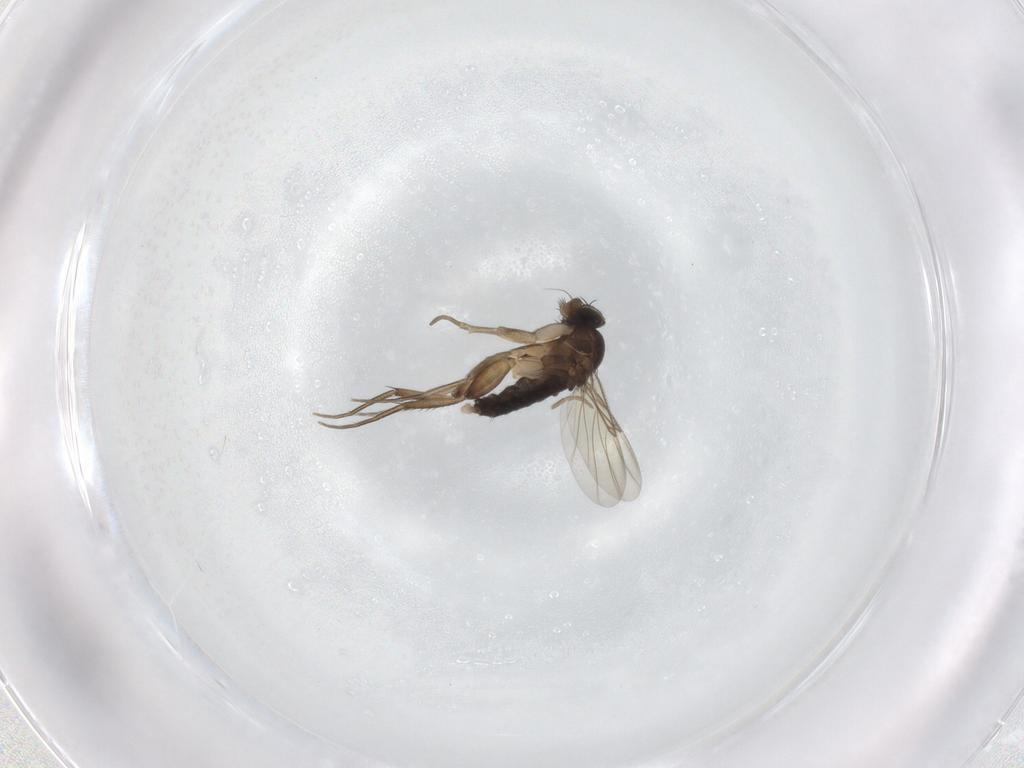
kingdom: Animalia
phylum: Arthropoda
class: Insecta
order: Diptera
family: Phoridae
